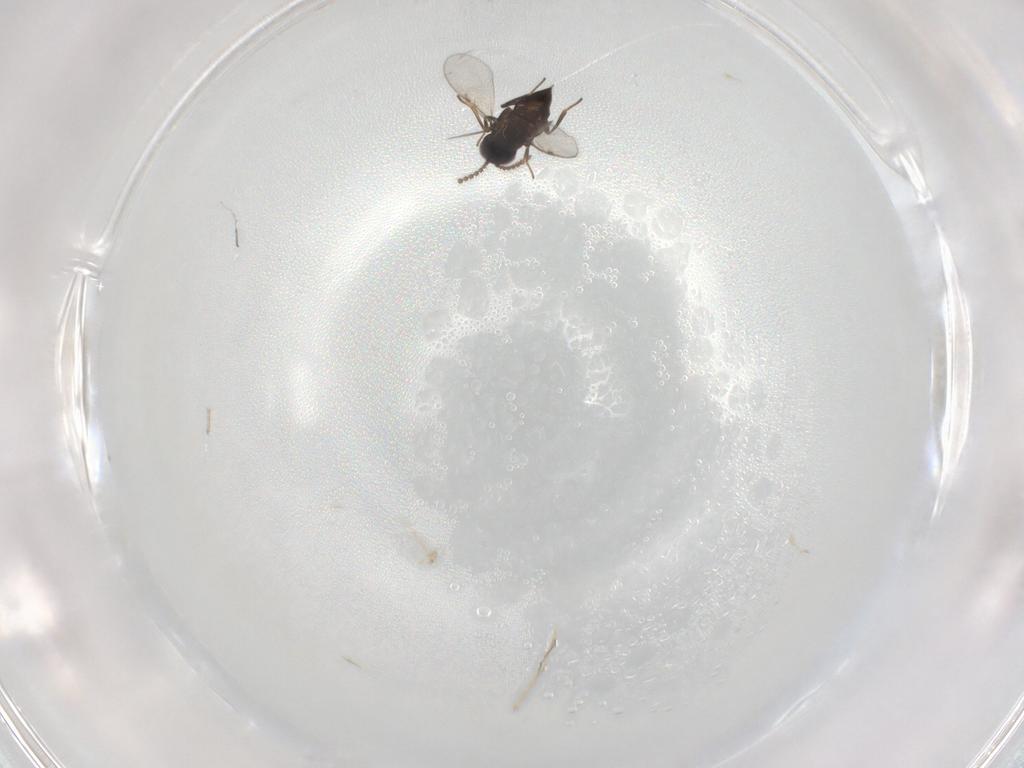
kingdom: Animalia
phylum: Arthropoda
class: Insecta
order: Hymenoptera
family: Encyrtidae
